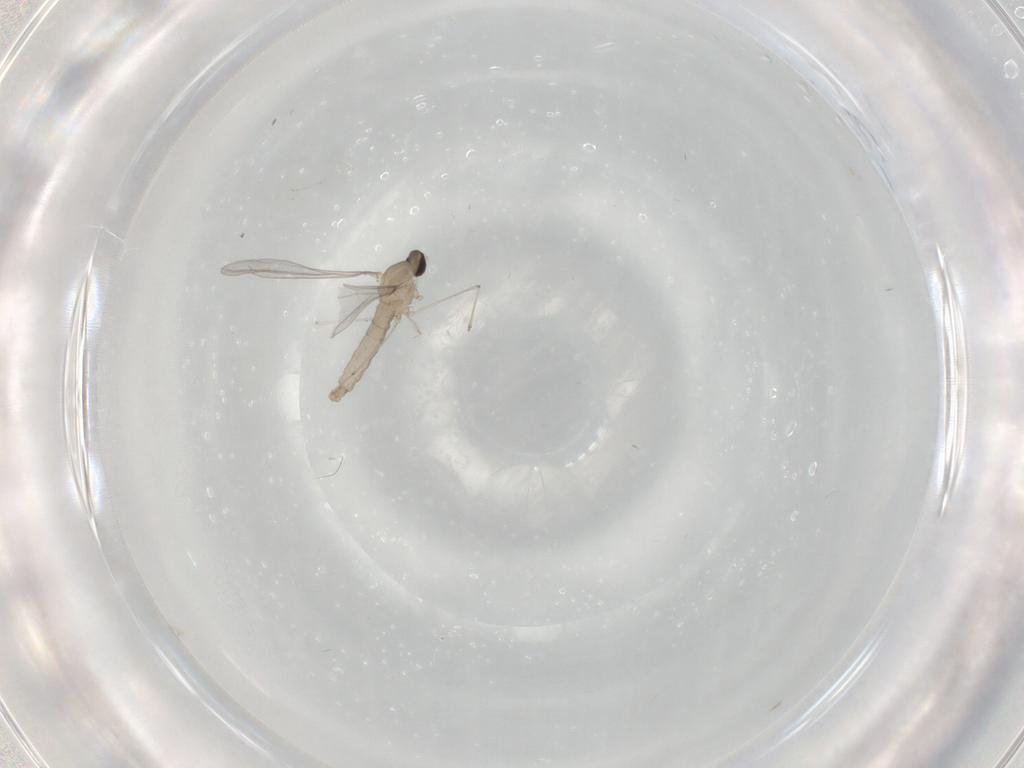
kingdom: Animalia
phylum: Arthropoda
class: Insecta
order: Diptera
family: Cecidomyiidae
